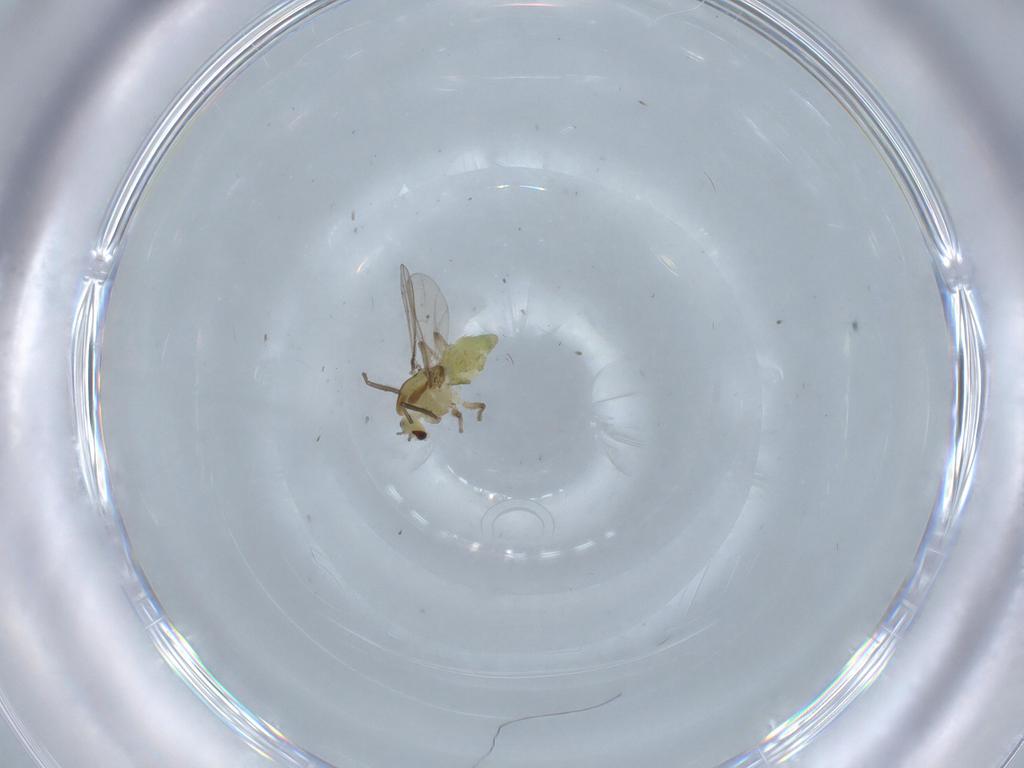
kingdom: Animalia
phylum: Arthropoda
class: Insecta
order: Diptera
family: Chironomidae
